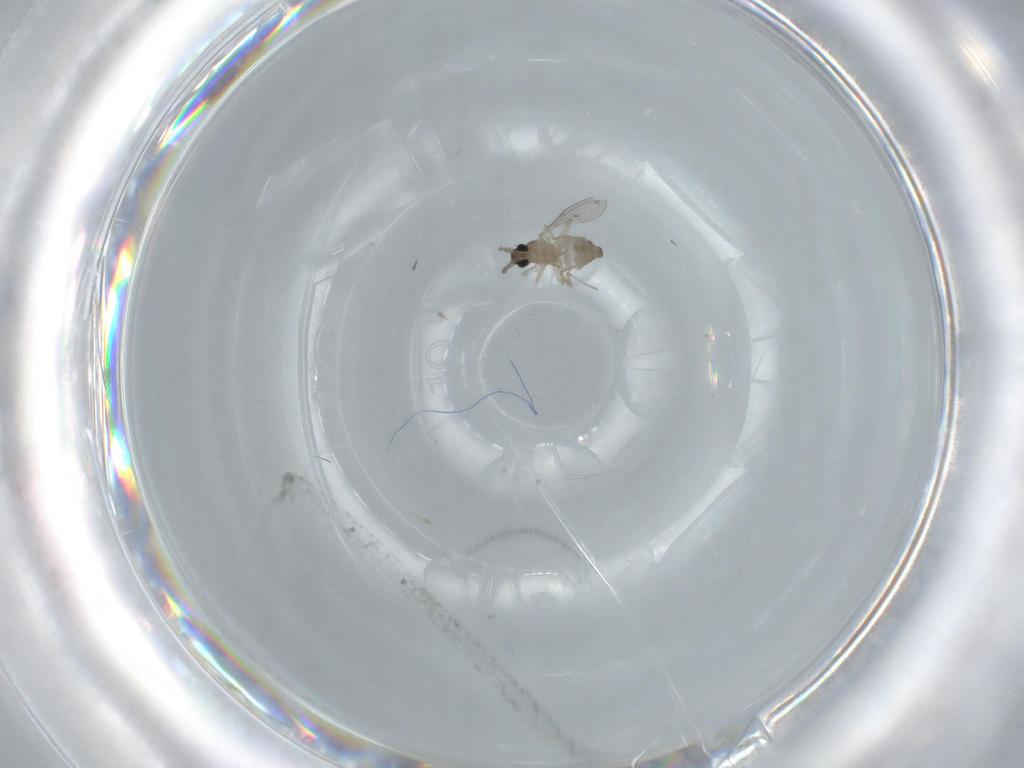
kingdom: Animalia
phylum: Arthropoda
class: Insecta
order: Diptera
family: Cecidomyiidae
